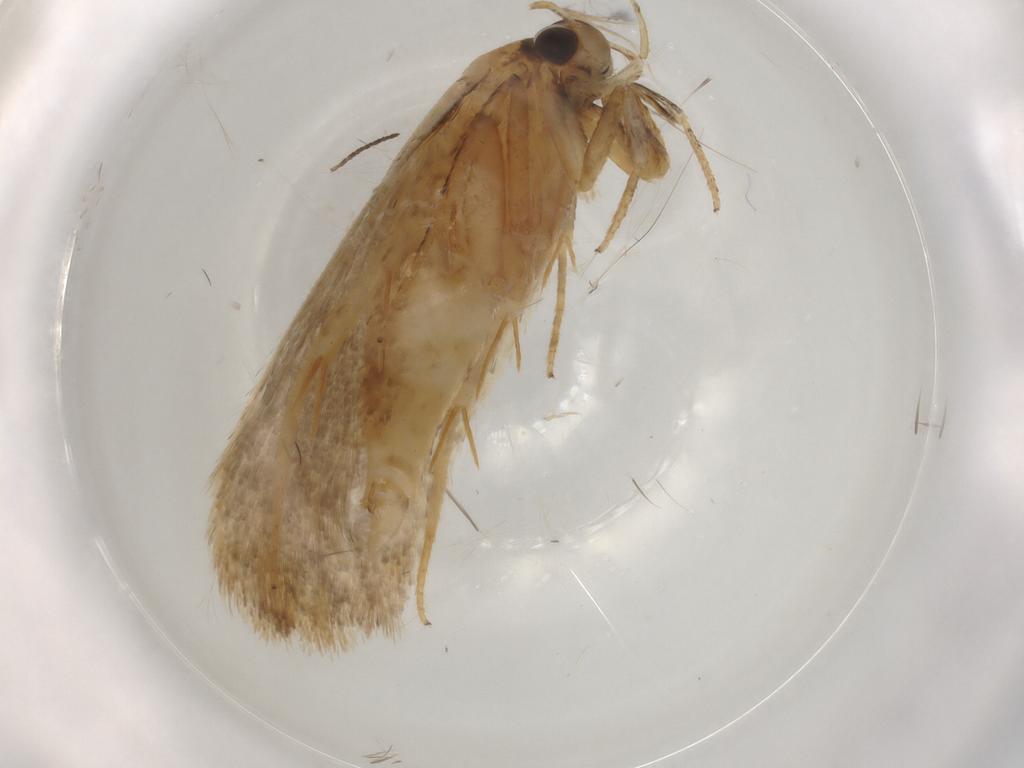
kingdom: Animalia
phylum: Arthropoda
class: Insecta
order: Lepidoptera
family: Gelechiidae
